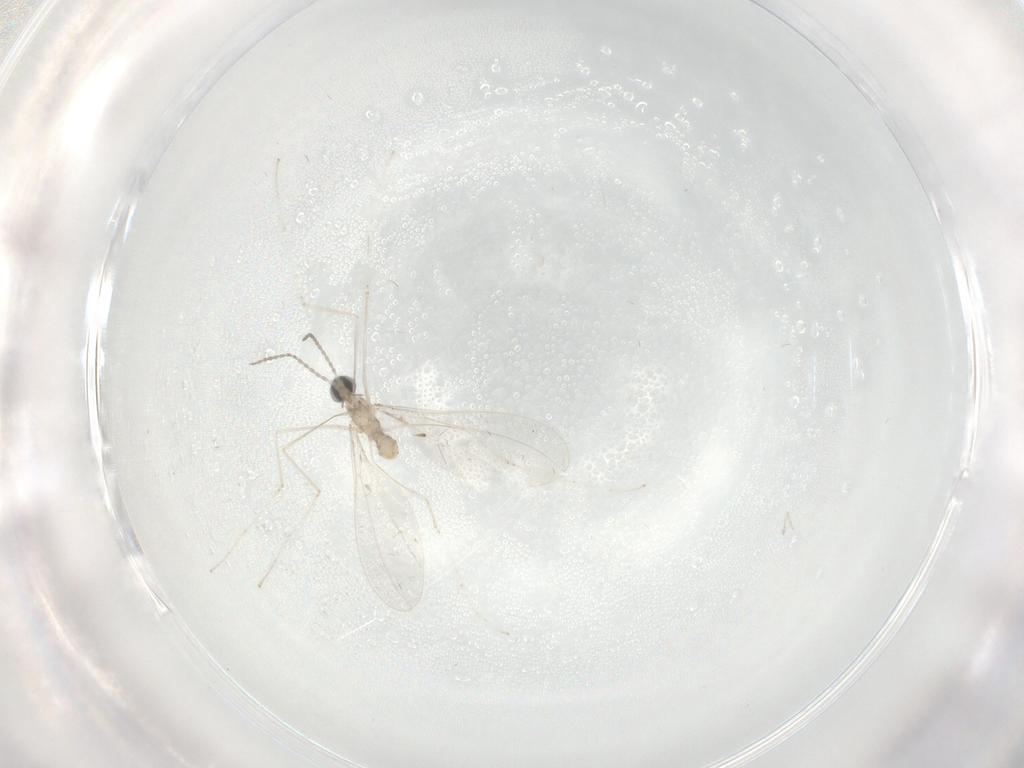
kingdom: Animalia
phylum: Arthropoda
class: Insecta
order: Diptera
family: Cecidomyiidae
